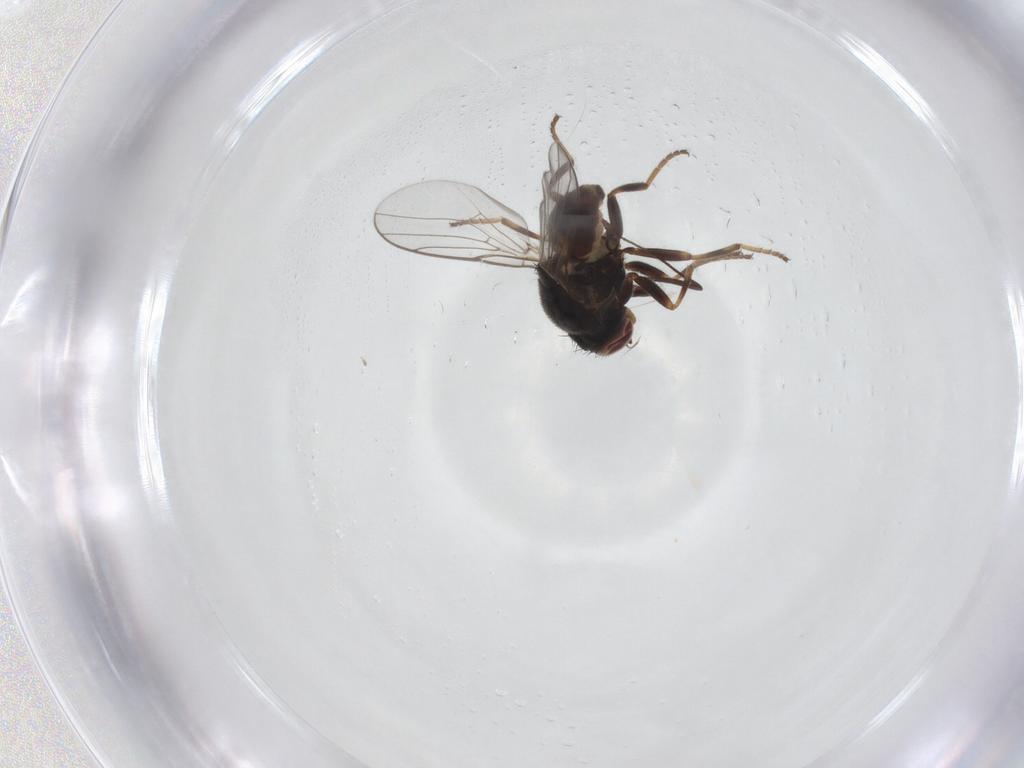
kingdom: Animalia
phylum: Arthropoda
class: Insecta
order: Diptera
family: Chloropidae
